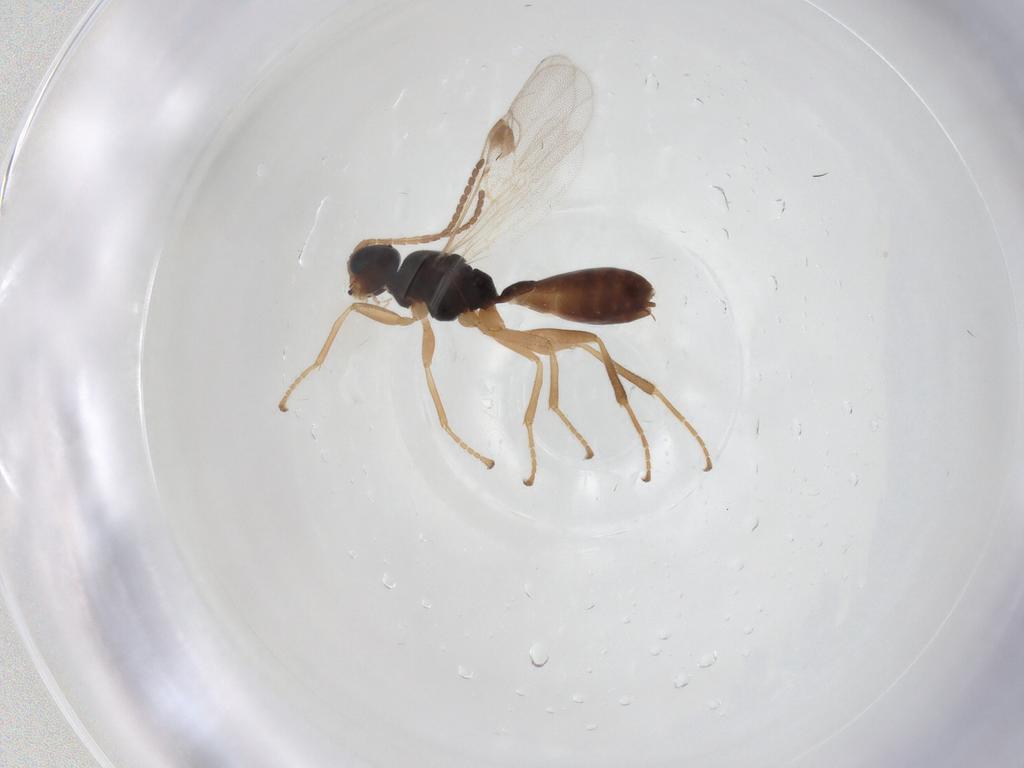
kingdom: Animalia
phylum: Arthropoda
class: Insecta
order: Hymenoptera
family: Braconidae
